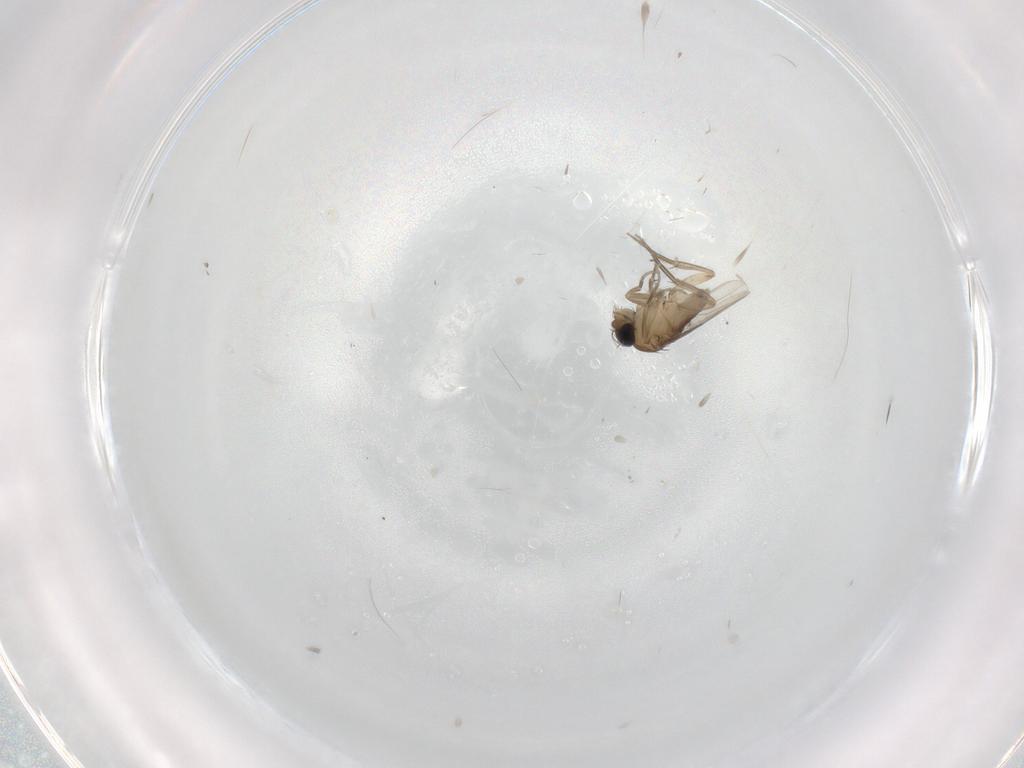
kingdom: Animalia
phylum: Arthropoda
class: Insecta
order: Diptera
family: Phoridae
